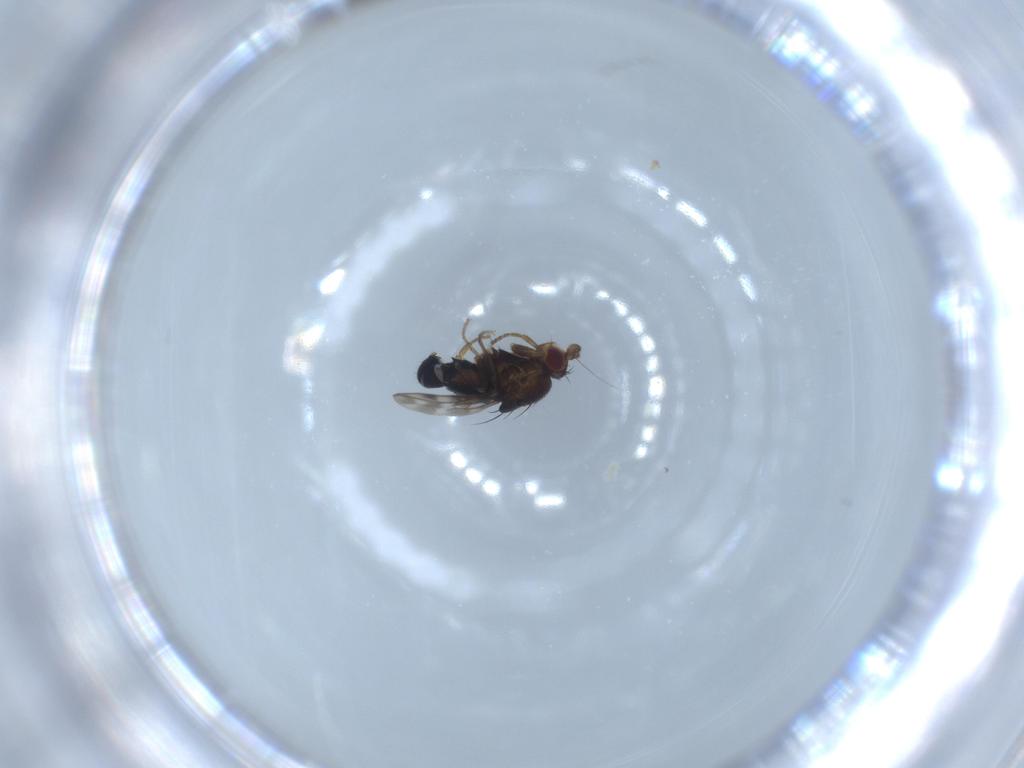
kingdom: Animalia
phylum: Arthropoda
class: Insecta
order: Diptera
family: Sphaeroceridae
